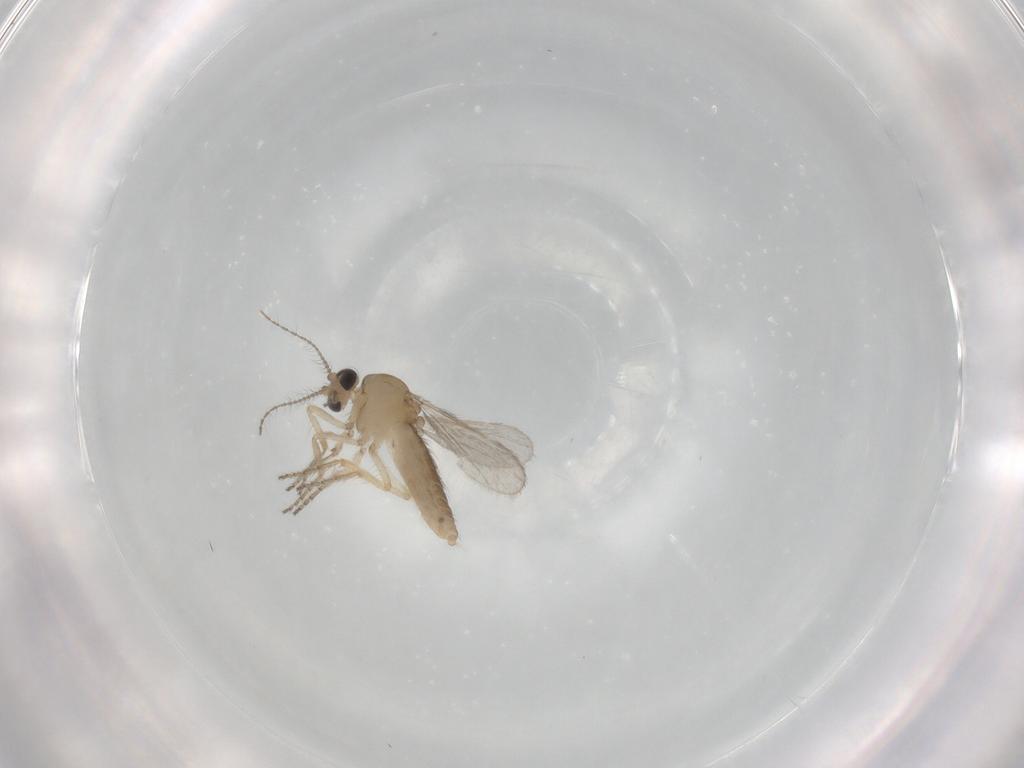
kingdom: Animalia
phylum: Arthropoda
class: Insecta
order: Diptera
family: Ceratopogonidae
